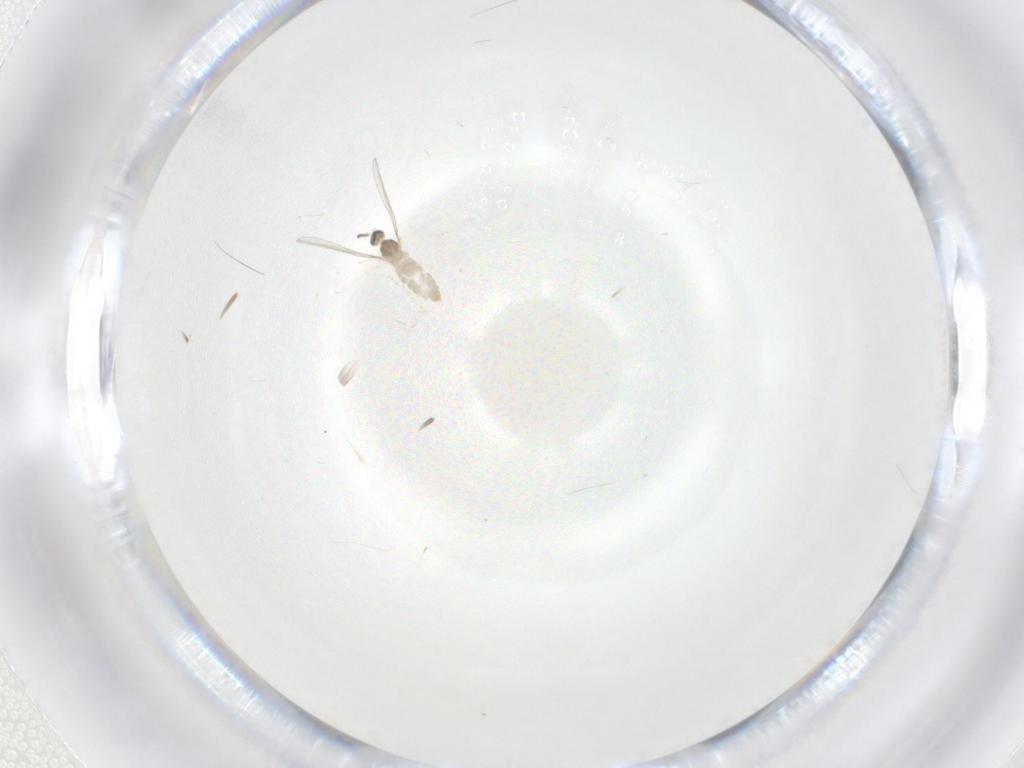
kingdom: Animalia
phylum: Arthropoda
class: Insecta
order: Diptera
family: Cecidomyiidae
